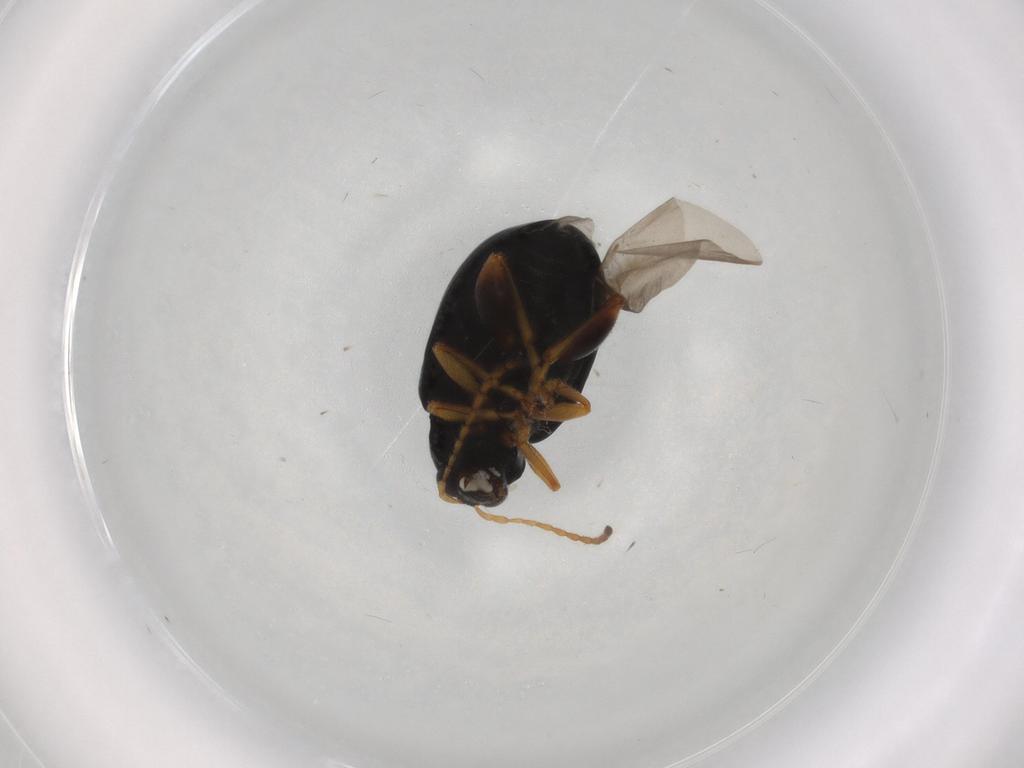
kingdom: Animalia
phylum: Arthropoda
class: Insecta
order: Coleoptera
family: Chrysomelidae
